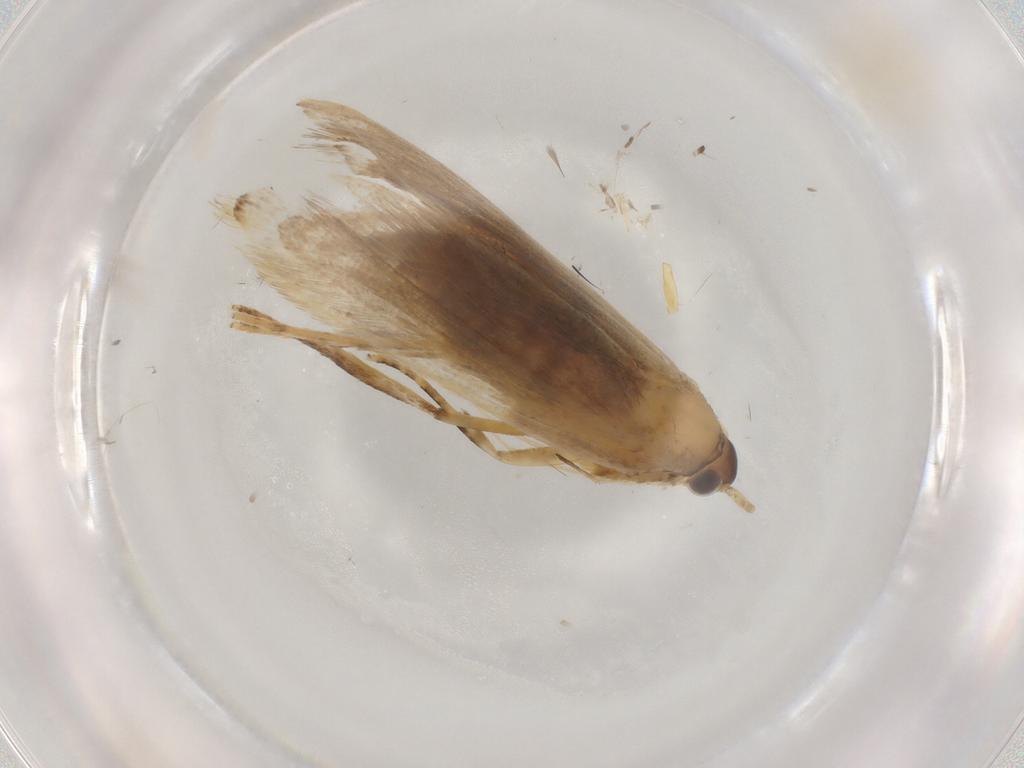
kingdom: Animalia
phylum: Arthropoda
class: Insecta
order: Lepidoptera
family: Lecithoceridae
